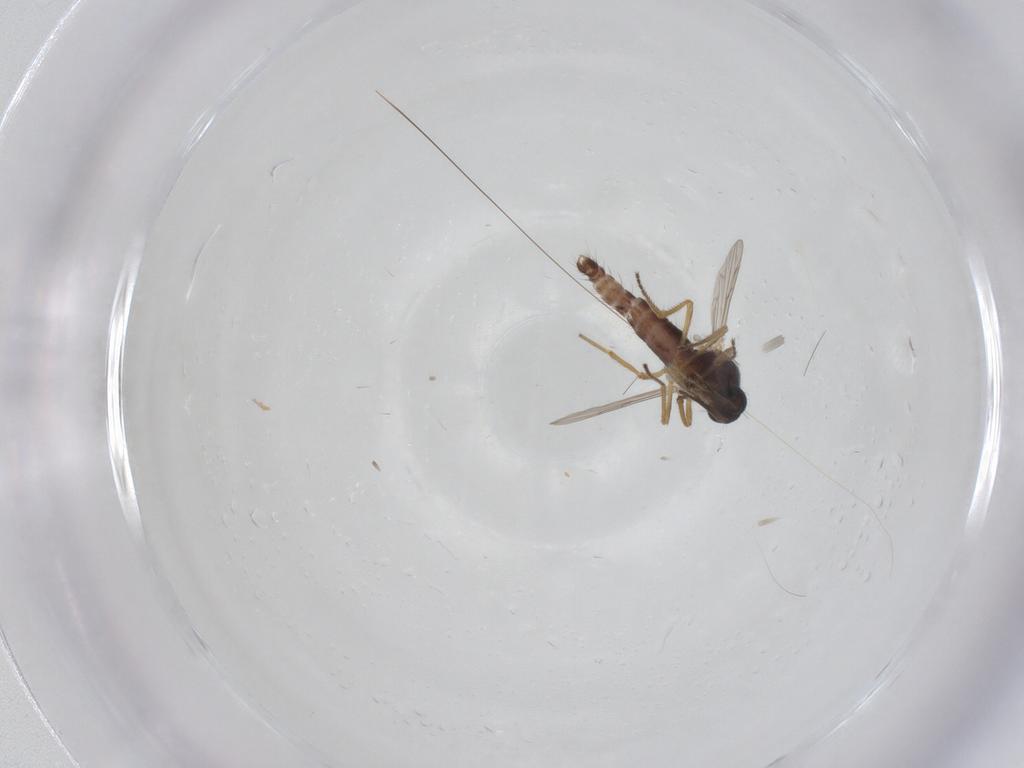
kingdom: Animalia
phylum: Arthropoda
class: Insecta
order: Diptera
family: Ceratopogonidae
